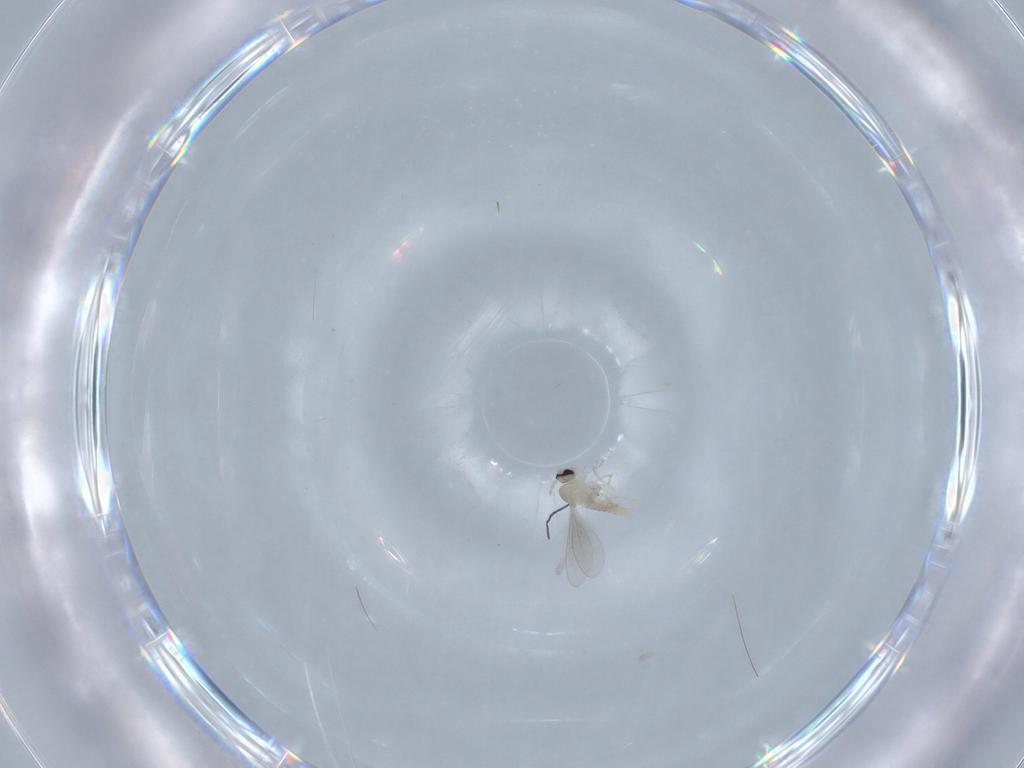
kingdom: Animalia
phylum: Arthropoda
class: Insecta
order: Diptera
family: Cecidomyiidae
